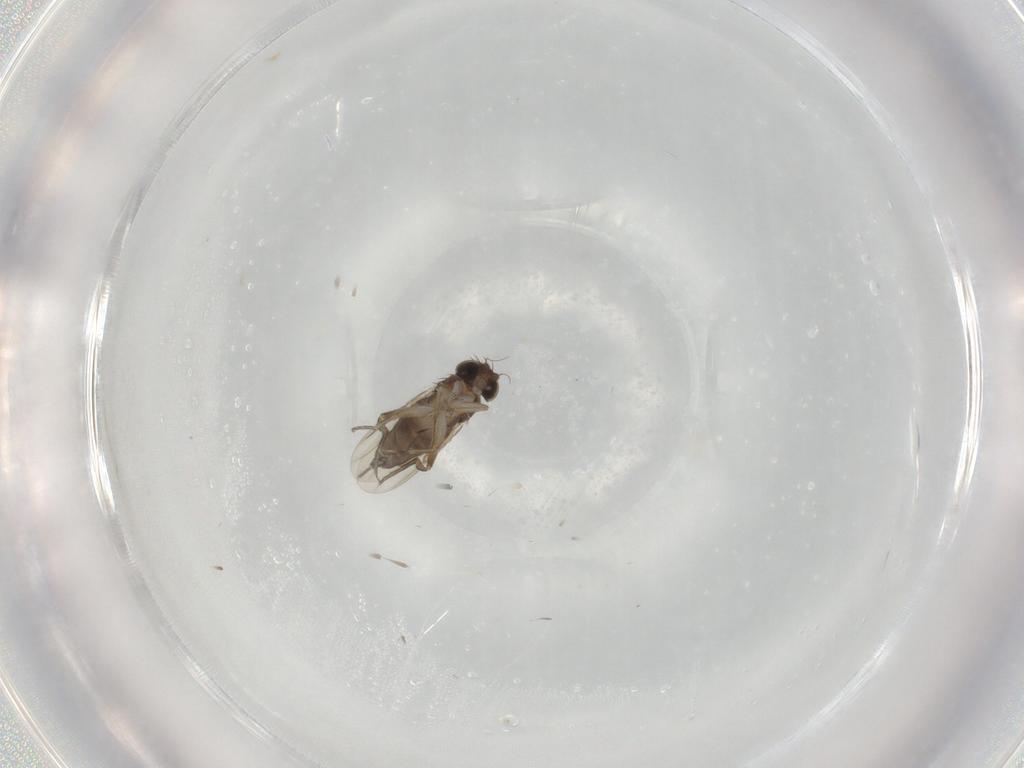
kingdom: Animalia
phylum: Arthropoda
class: Insecta
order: Diptera
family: Phoridae
